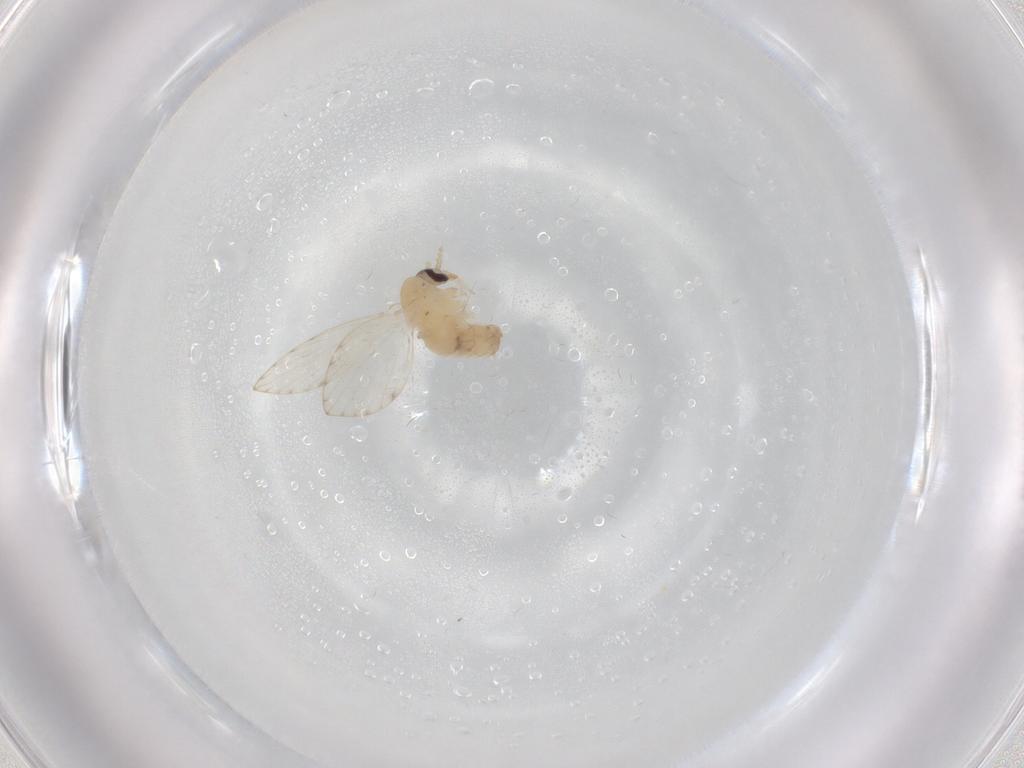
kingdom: Animalia
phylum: Arthropoda
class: Insecta
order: Diptera
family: Psychodidae
